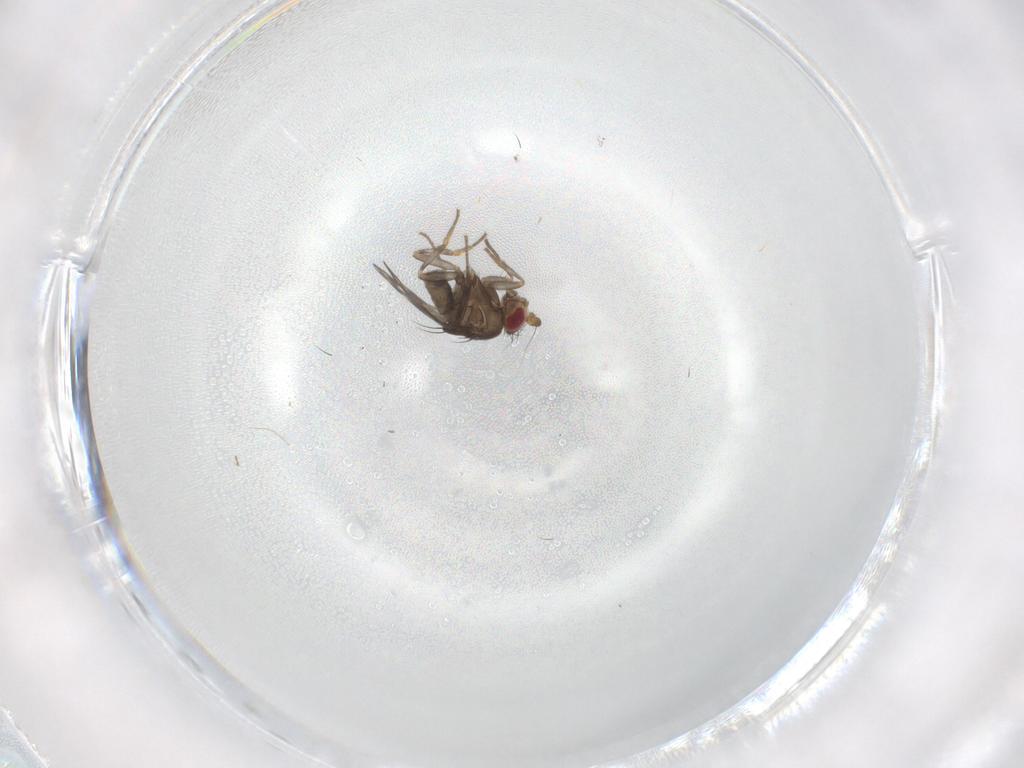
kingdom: Animalia
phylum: Arthropoda
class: Insecta
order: Diptera
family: Sphaeroceridae
